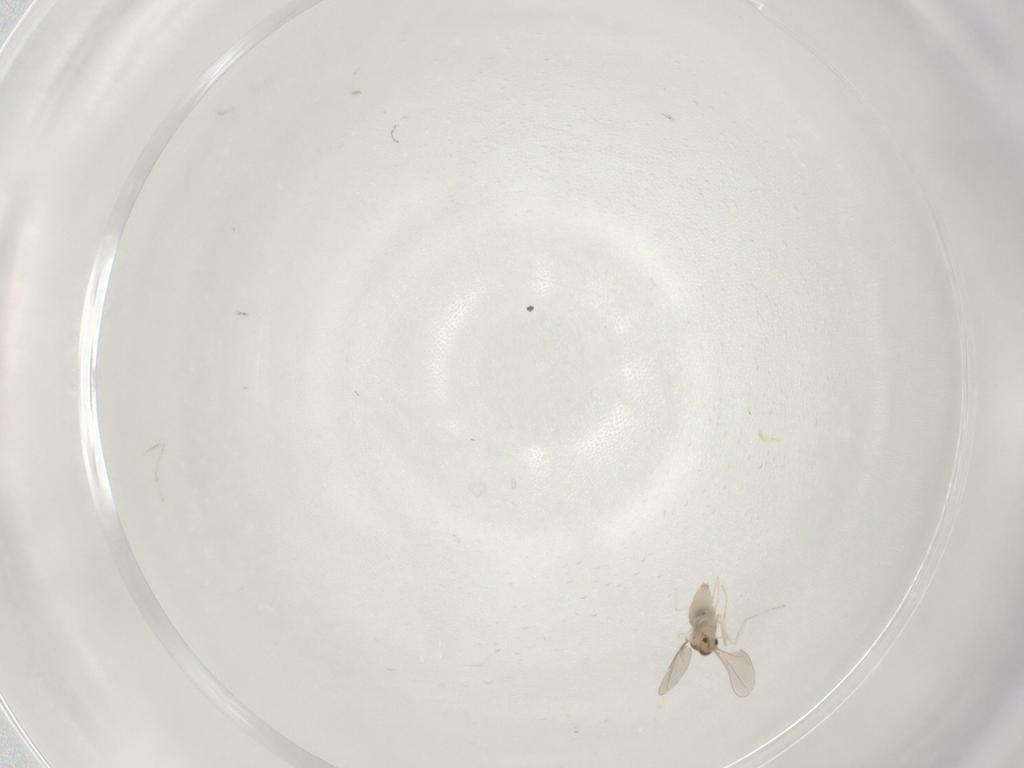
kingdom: Animalia
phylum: Arthropoda
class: Insecta
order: Diptera
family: Cecidomyiidae
